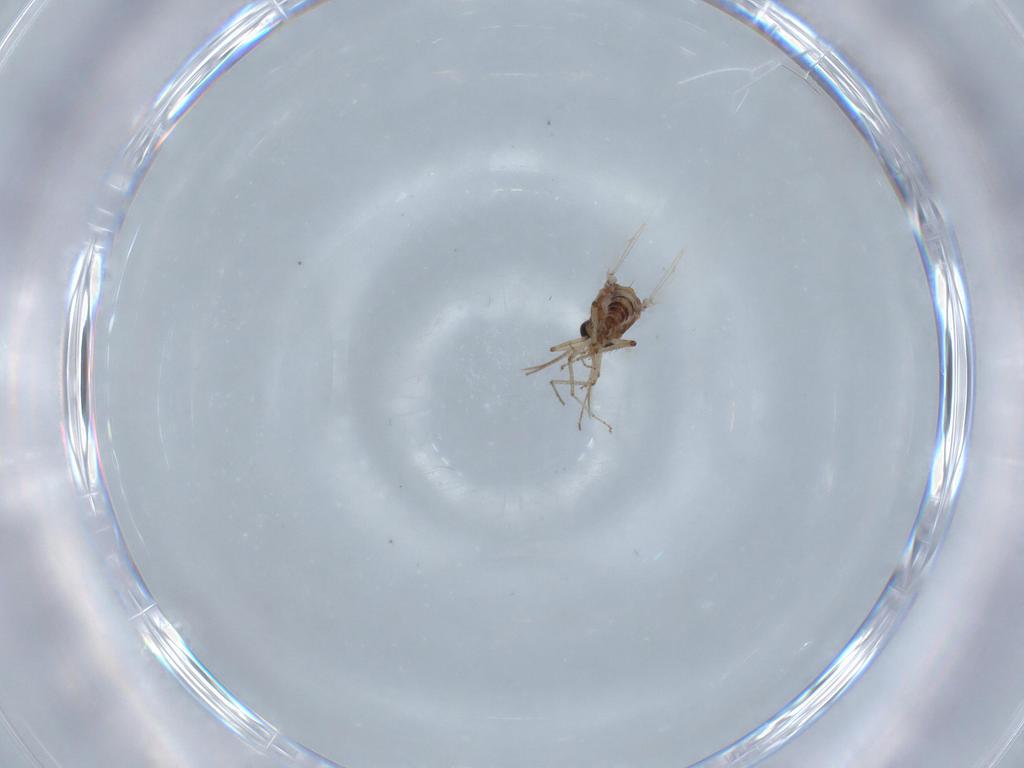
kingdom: Animalia
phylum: Arthropoda
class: Insecta
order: Diptera
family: Ceratopogonidae
